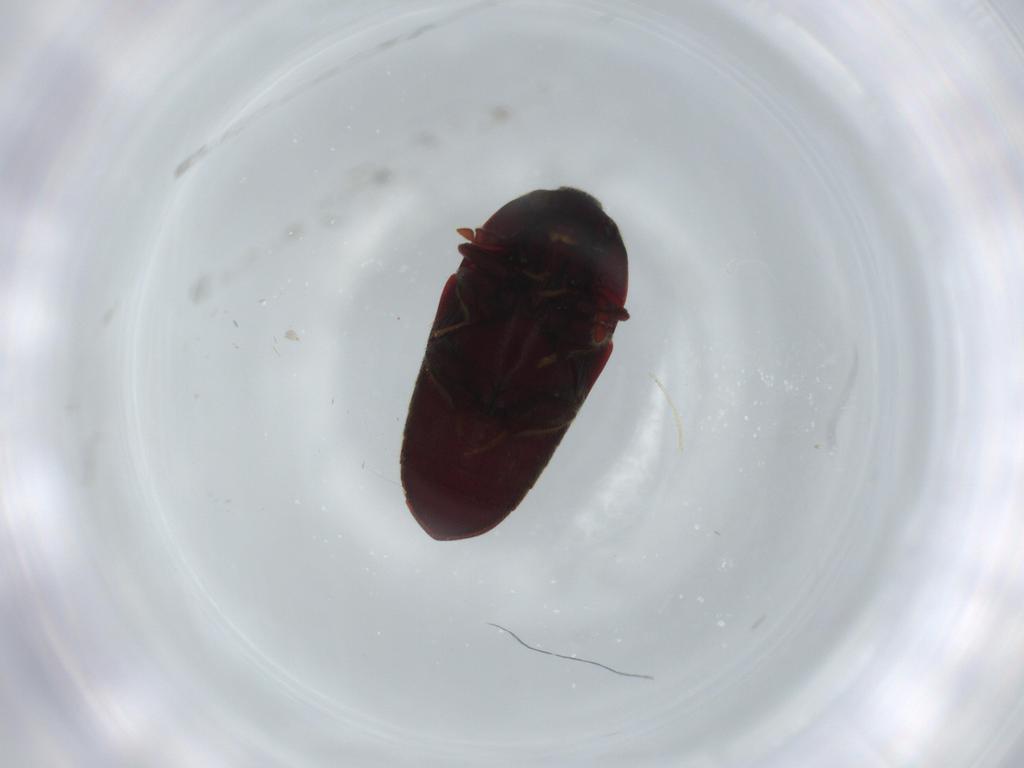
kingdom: Animalia
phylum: Arthropoda
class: Insecta
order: Coleoptera
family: Throscidae
